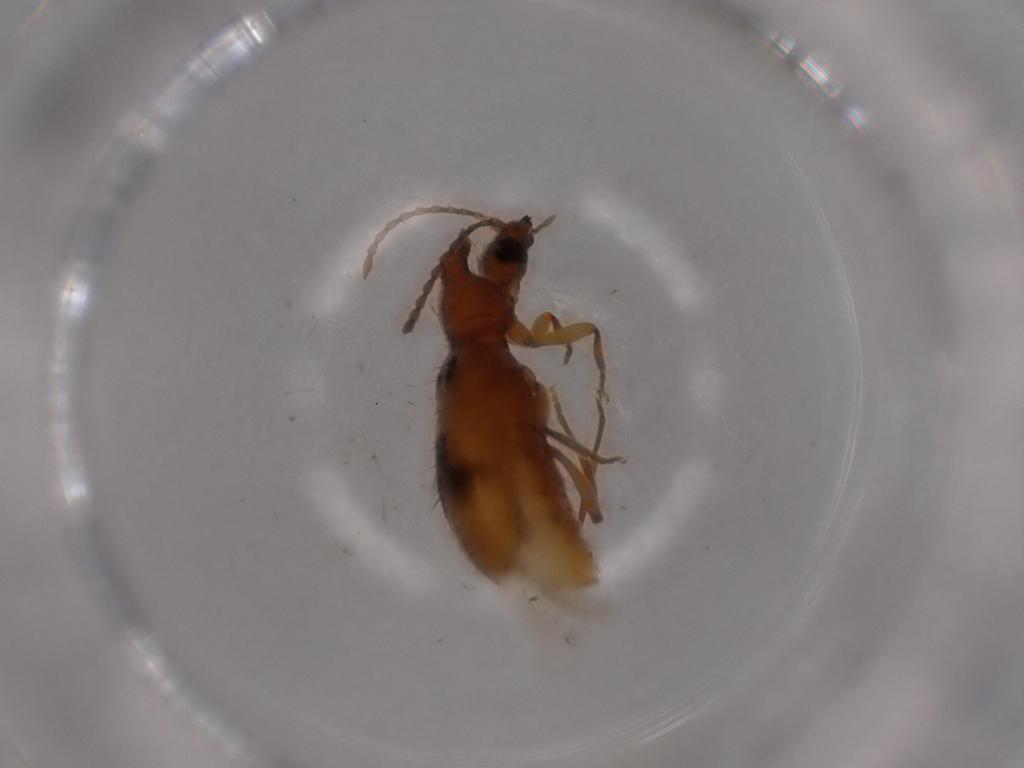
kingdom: Animalia
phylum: Arthropoda
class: Insecta
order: Coleoptera
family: Anthicidae
